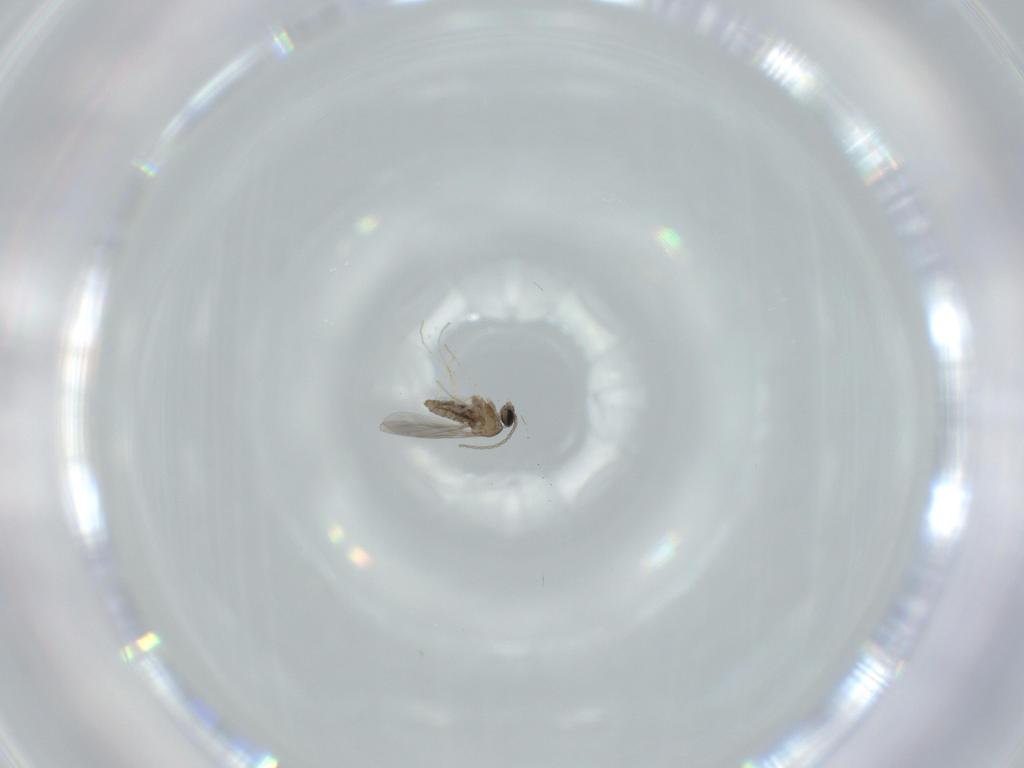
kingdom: Animalia
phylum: Arthropoda
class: Insecta
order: Diptera
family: Cecidomyiidae
